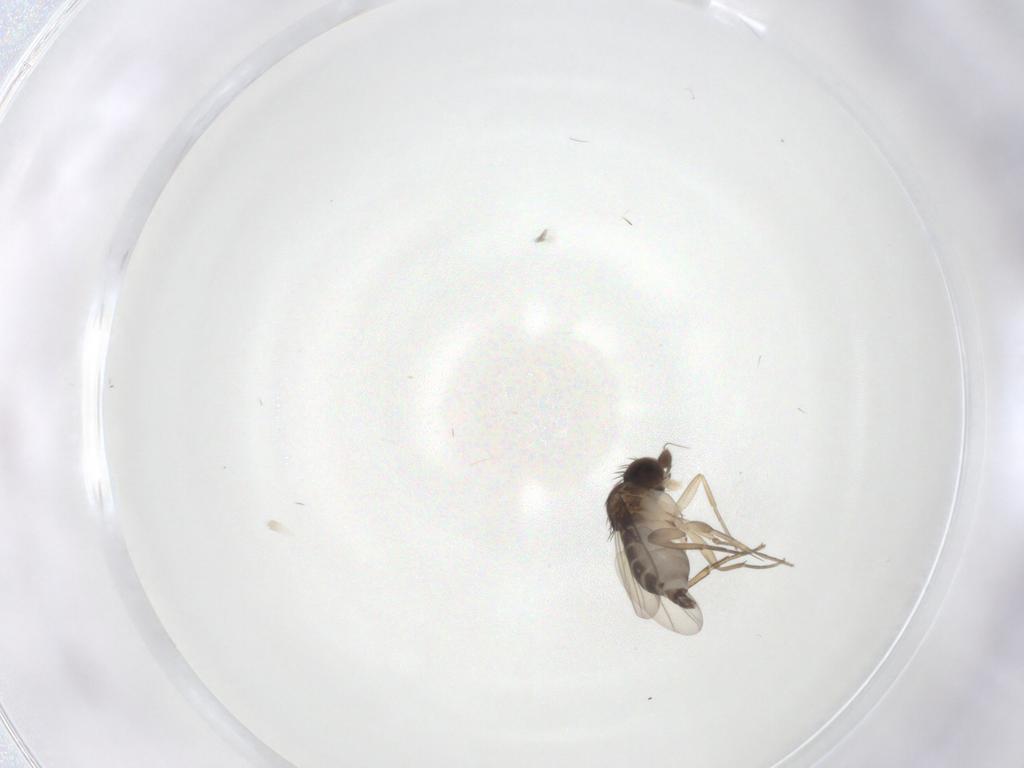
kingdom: Animalia
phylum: Arthropoda
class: Insecta
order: Diptera
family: Phoridae
